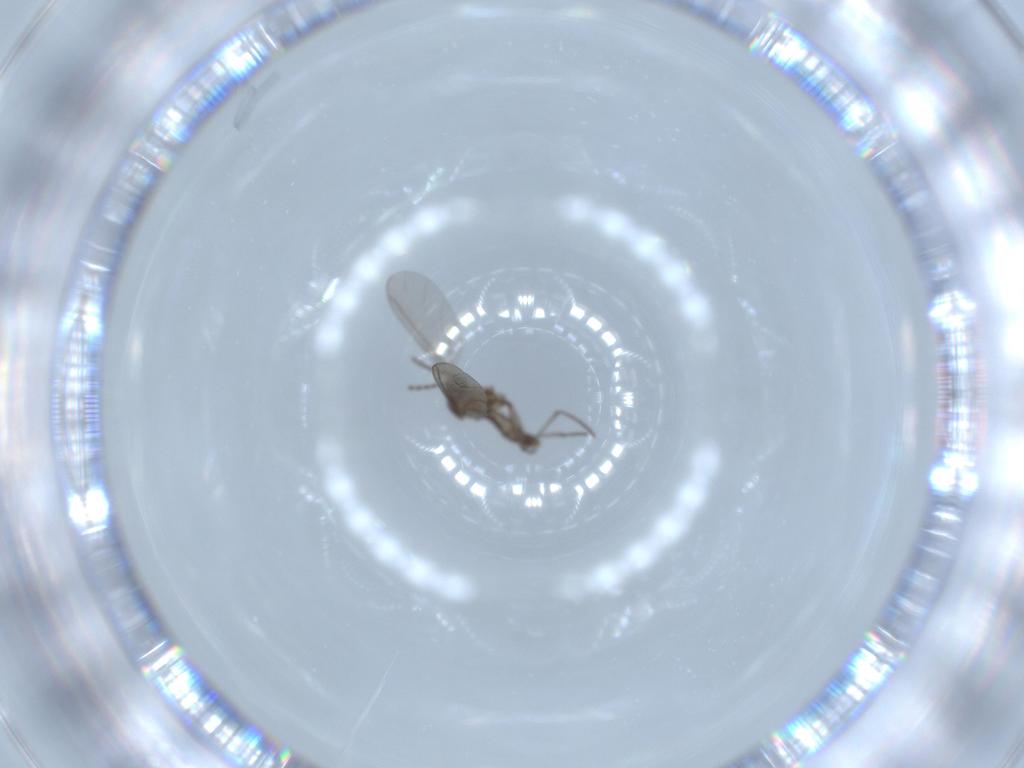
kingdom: Animalia
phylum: Arthropoda
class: Insecta
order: Diptera
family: Sciaridae
